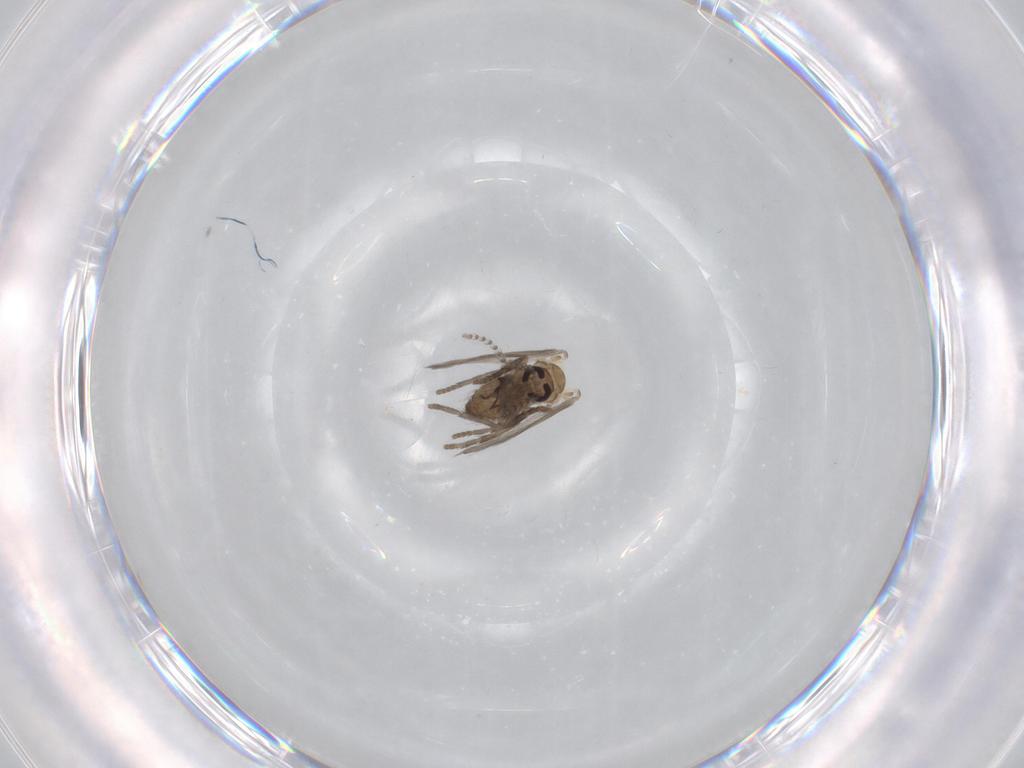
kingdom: Animalia
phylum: Arthropoda
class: Insecta
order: Diptera
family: Psychodidae
